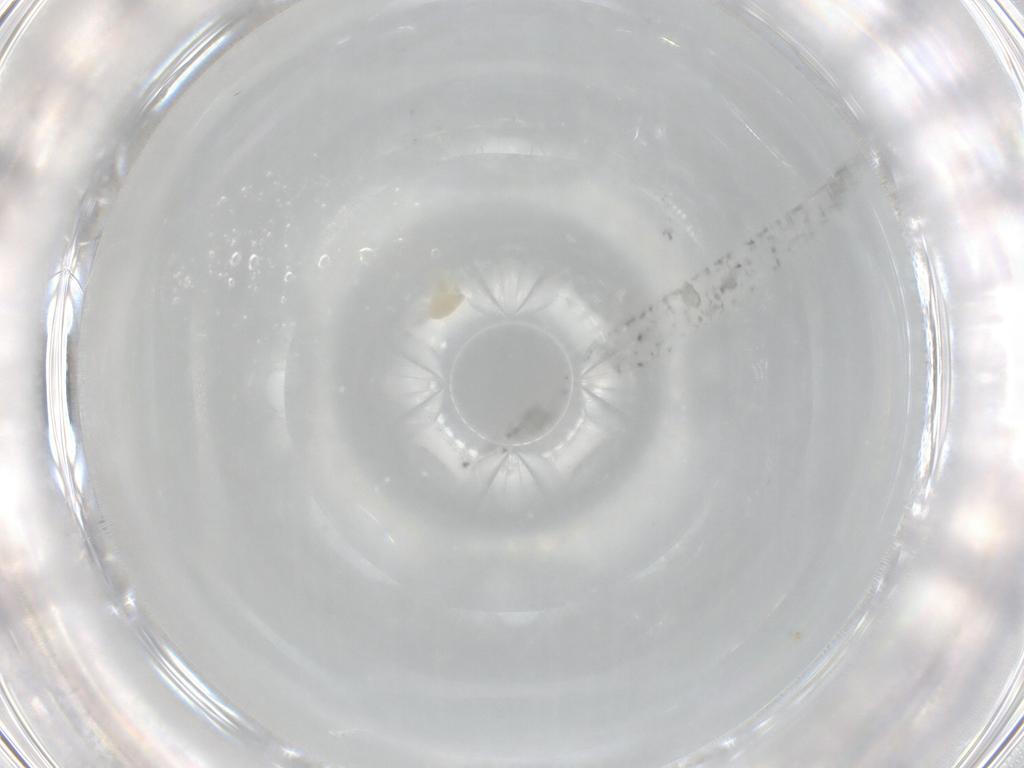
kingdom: Animalia
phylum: Arthropoda
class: Arachnida
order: Trombidiformes
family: Eupodidae
